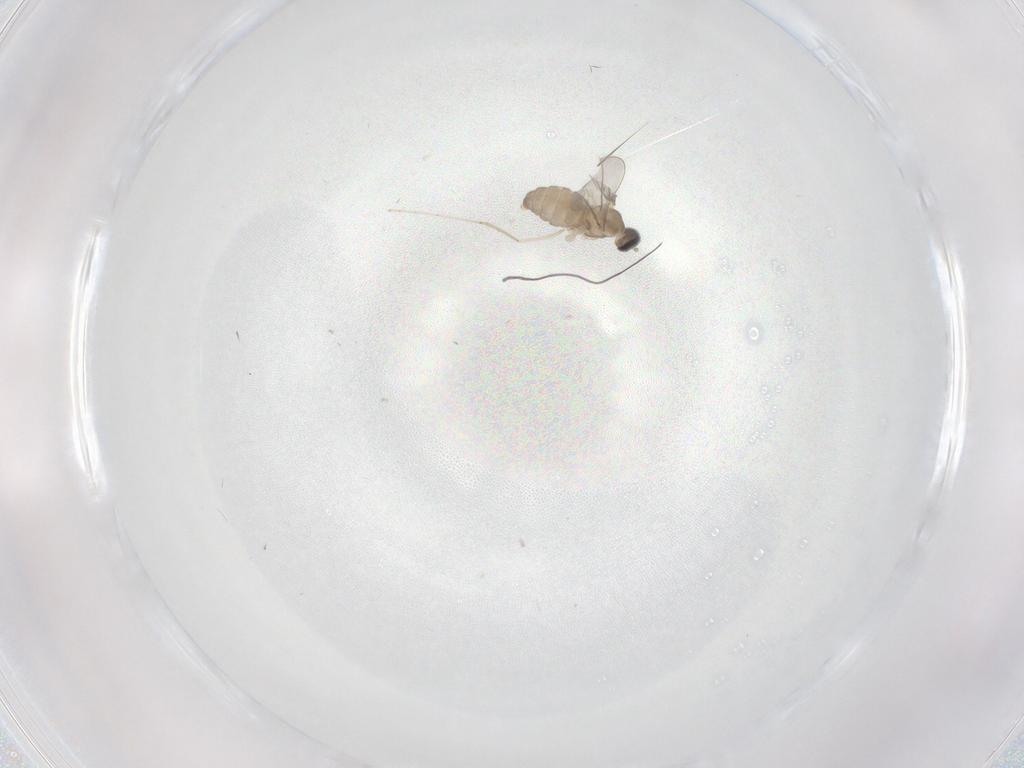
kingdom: Animalia
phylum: Arthropoda
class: Insecta
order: Diptera
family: Cecidomyiidae
